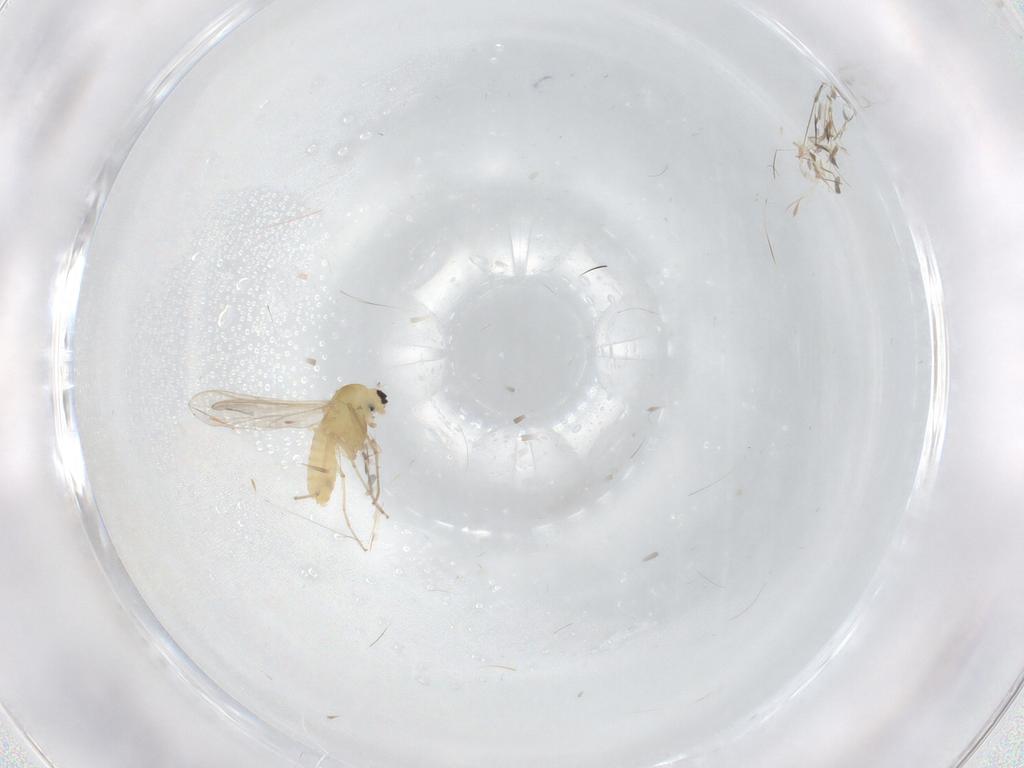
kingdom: Animalia
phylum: Arthropoda
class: Insecta
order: Diptera
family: Chironomidae
